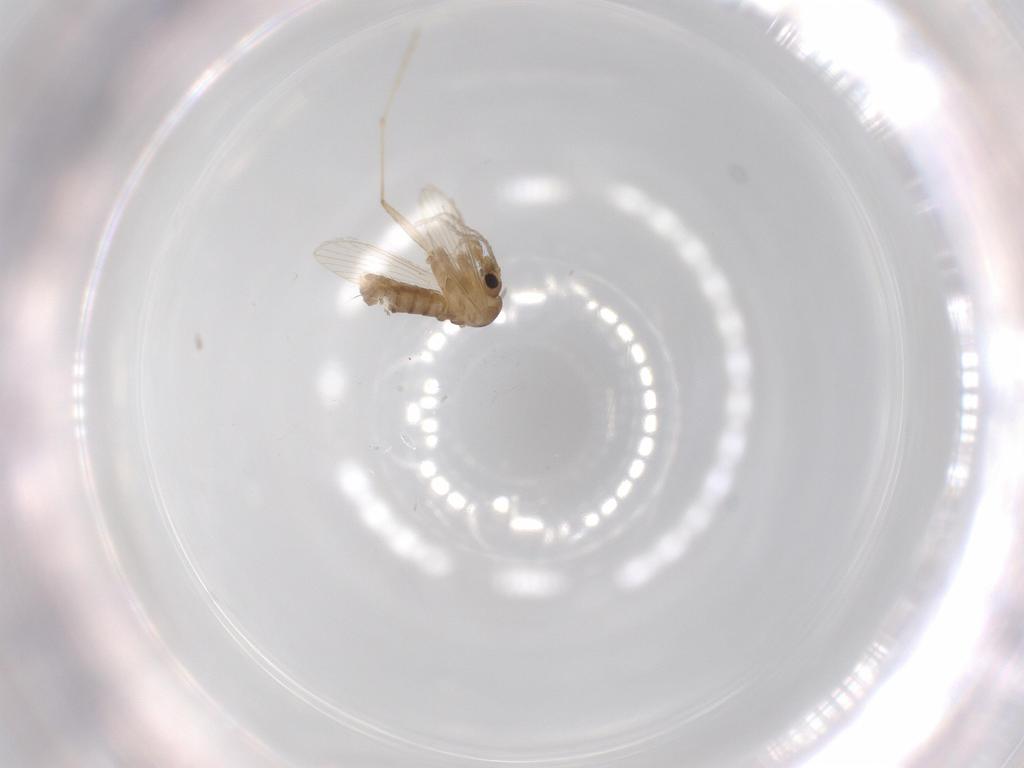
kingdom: Animalia
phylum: Arthropoda
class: Insecta
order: Diptera
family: Psychodidae
